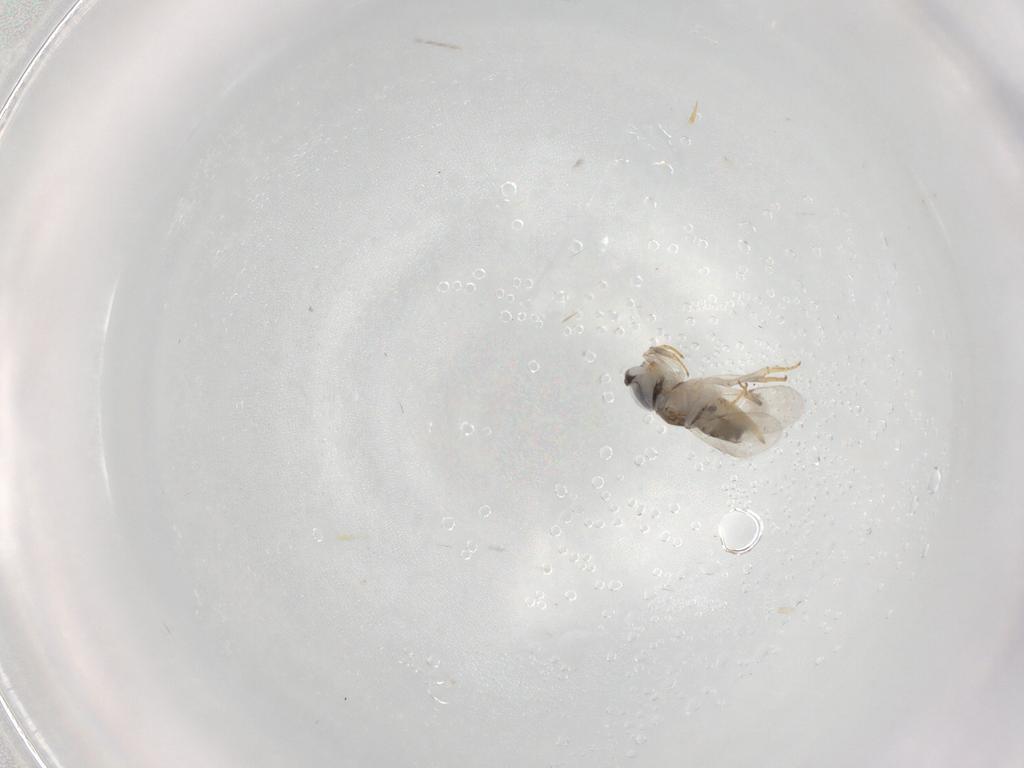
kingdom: Animalia
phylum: Arthropoda
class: Insecta
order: Hymenoptera
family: Encyrtidae
